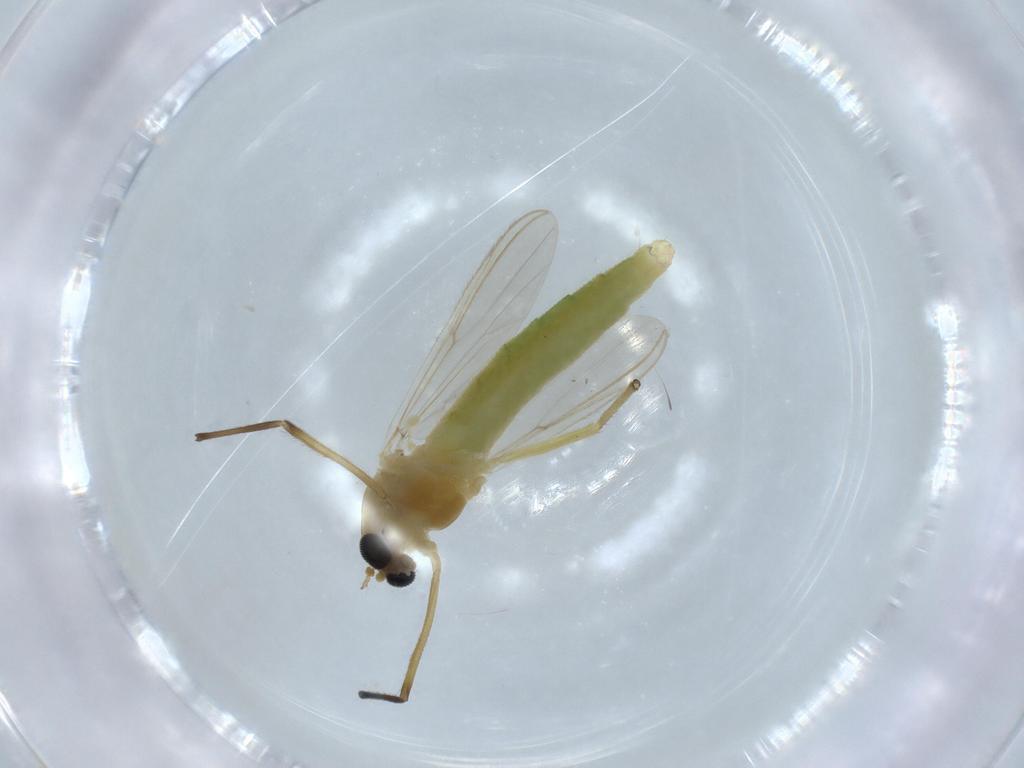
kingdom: Animalia
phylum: Arthropoda
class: Insecta
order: Diptera
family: Chironomidae
